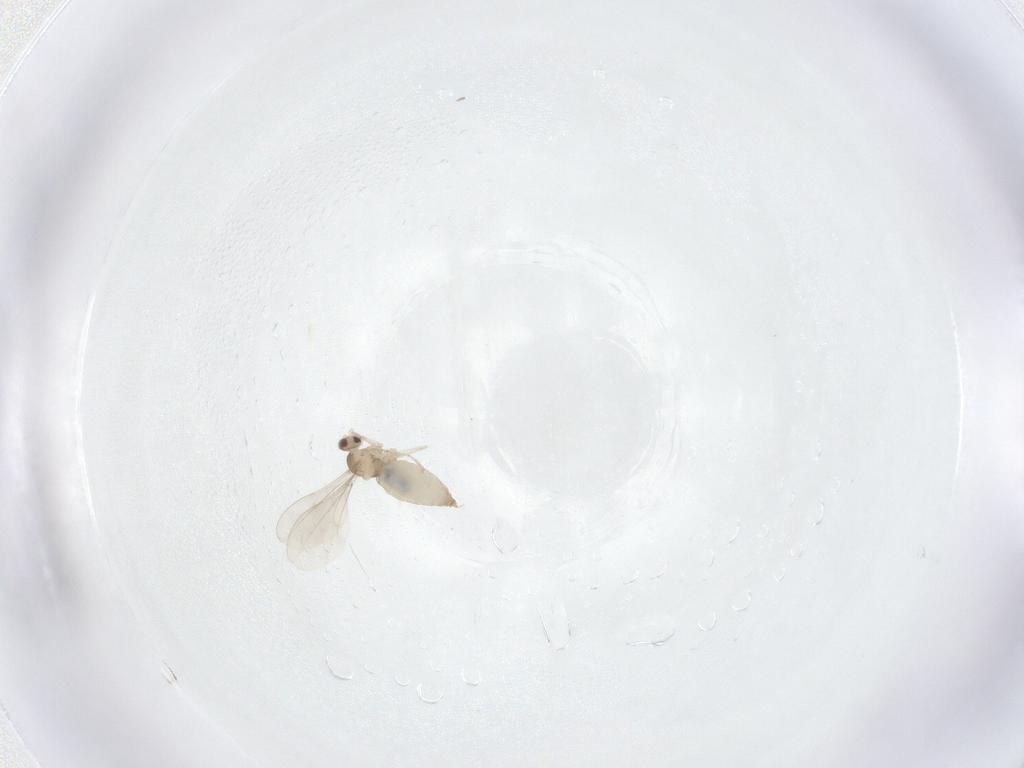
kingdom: Animalia
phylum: Arthropoda
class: Insecta
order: Diptera
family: Psychodidae
